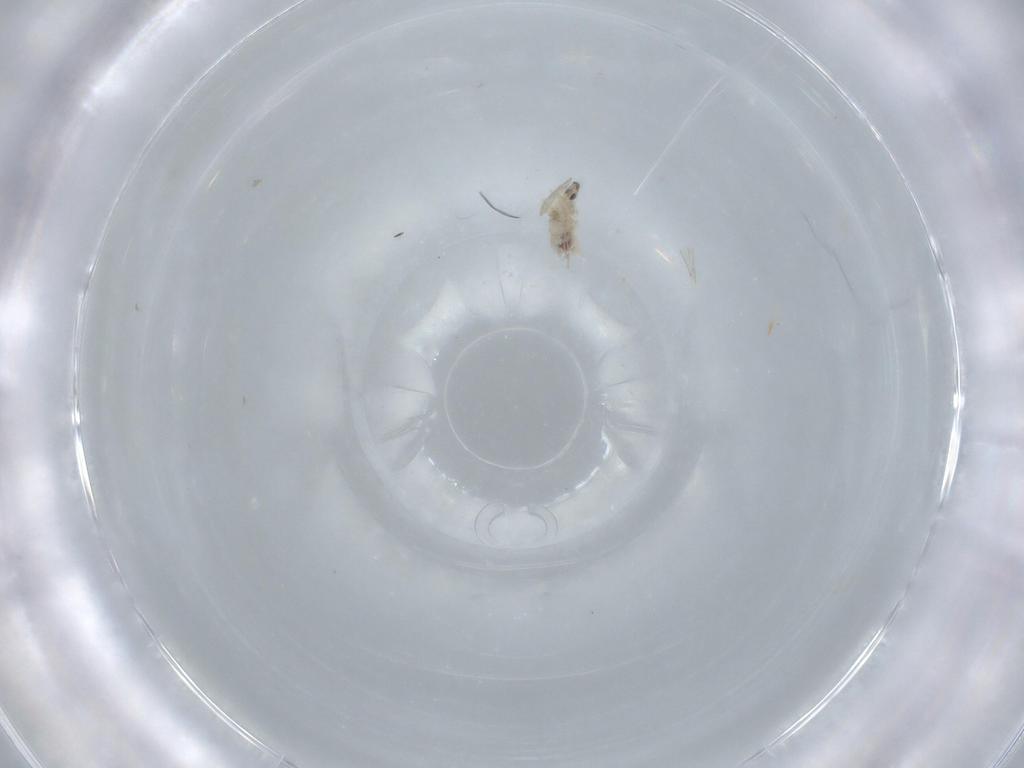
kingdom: Animalia
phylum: Arthropoda
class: Insecta
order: Diptera
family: Cecidomyiidae
